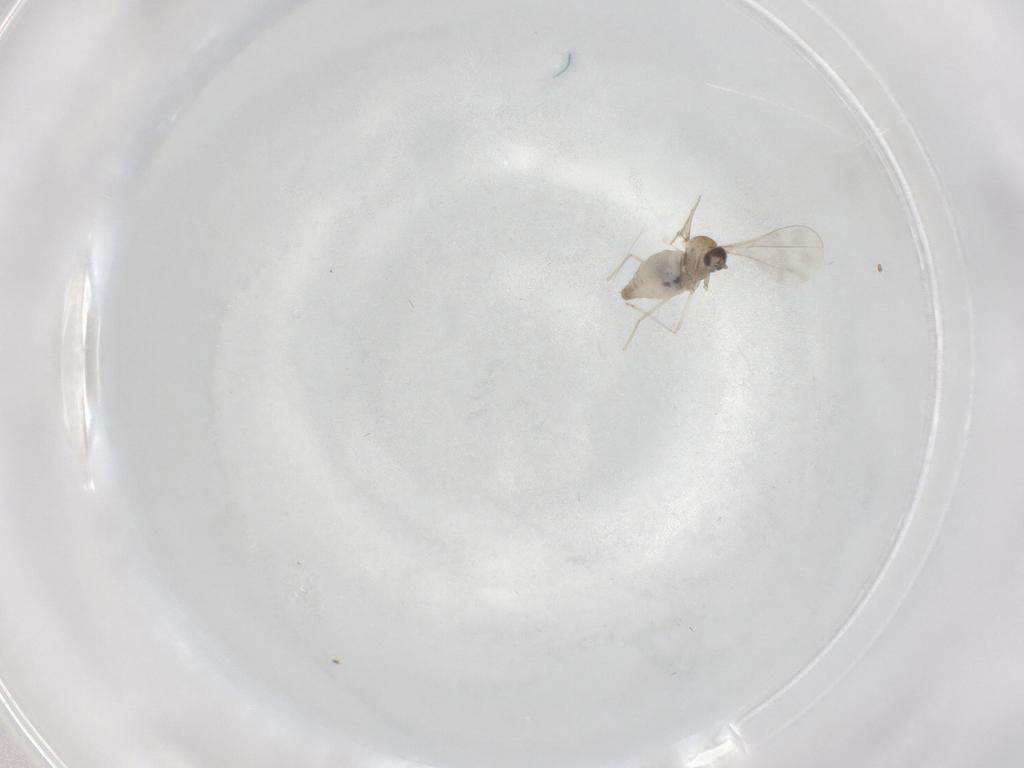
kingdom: Animalia
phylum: Arthropoda
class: Insecta
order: Diptera
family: Cecidomyiidae
